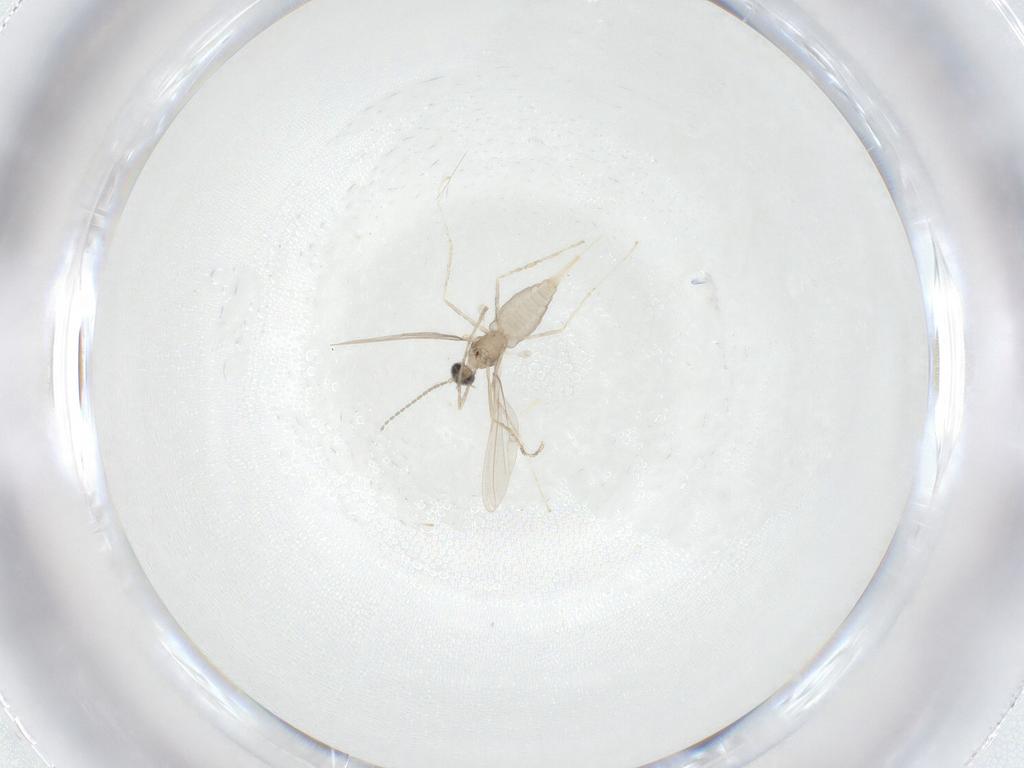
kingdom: Animalia
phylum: Arthropoda
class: Insecta
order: Diptera
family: Cecidomyiidae
